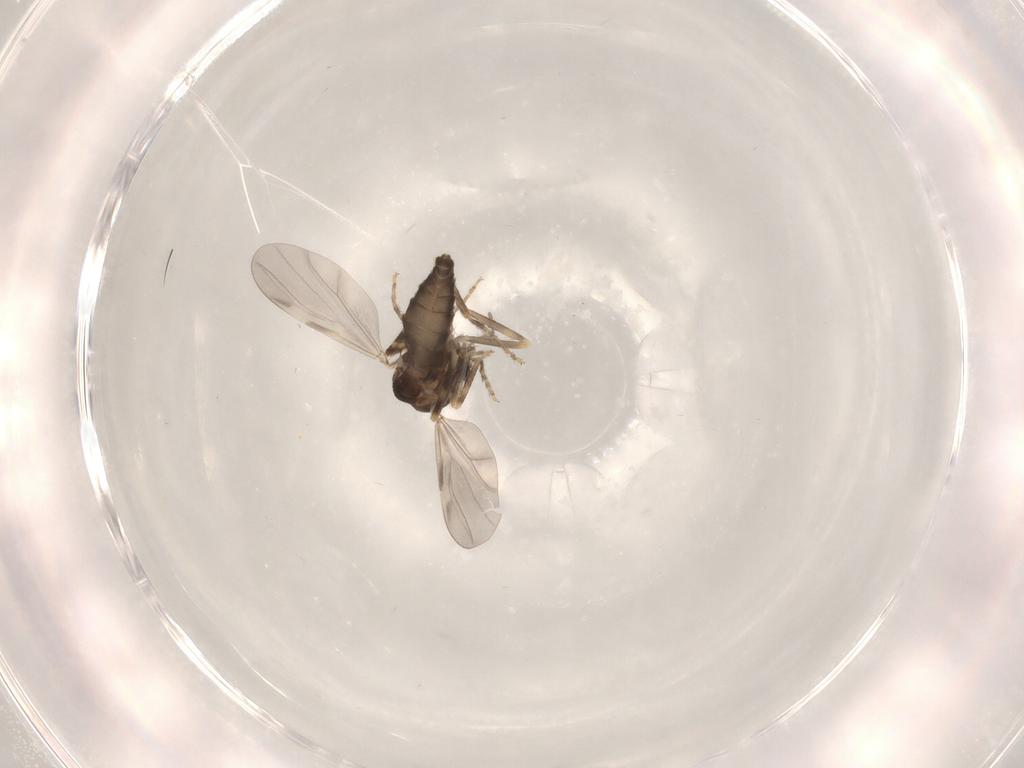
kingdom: Animalia
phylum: Arthropoda
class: Insecta
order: Diptera
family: Ceratopogonidae
